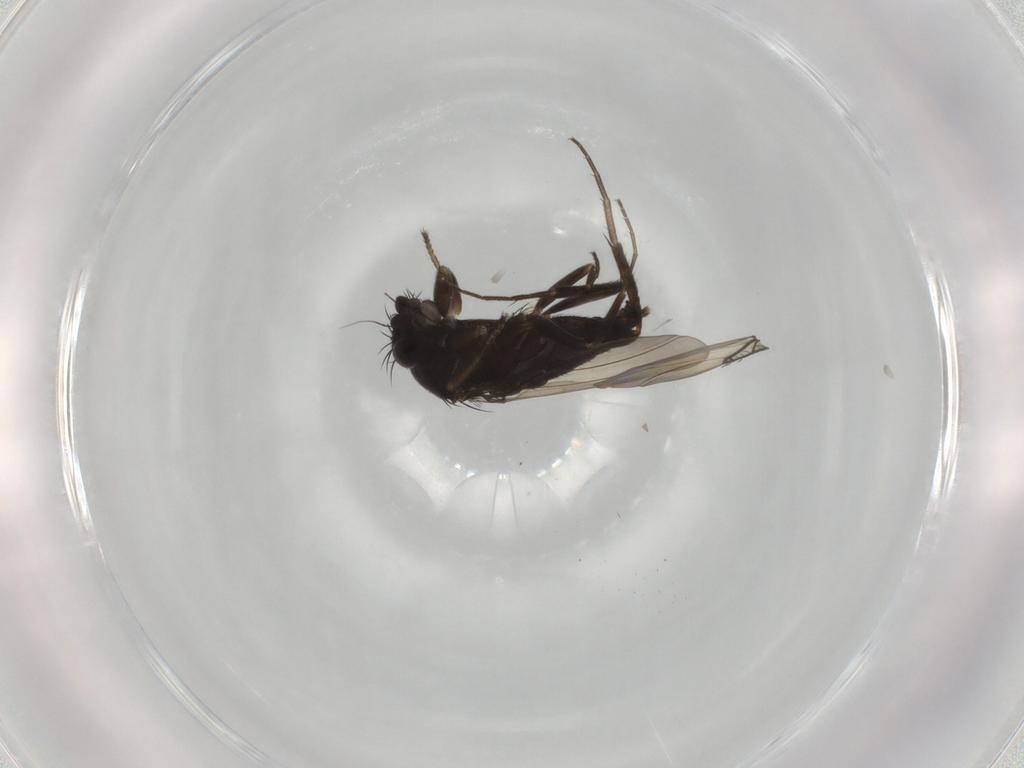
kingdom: Animalia
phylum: Arthropoda
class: Insecta
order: Diptera
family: Phoridae
